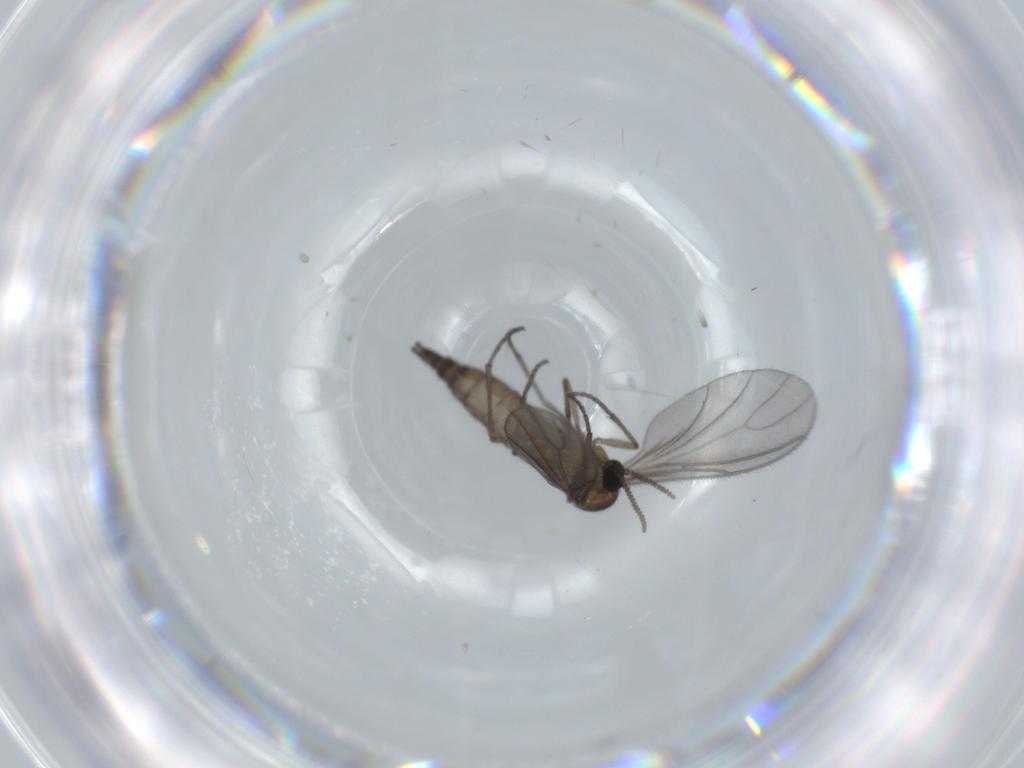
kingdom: Animalia
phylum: Arthropoda
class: Insecta
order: Diptera
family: Sciaridae
